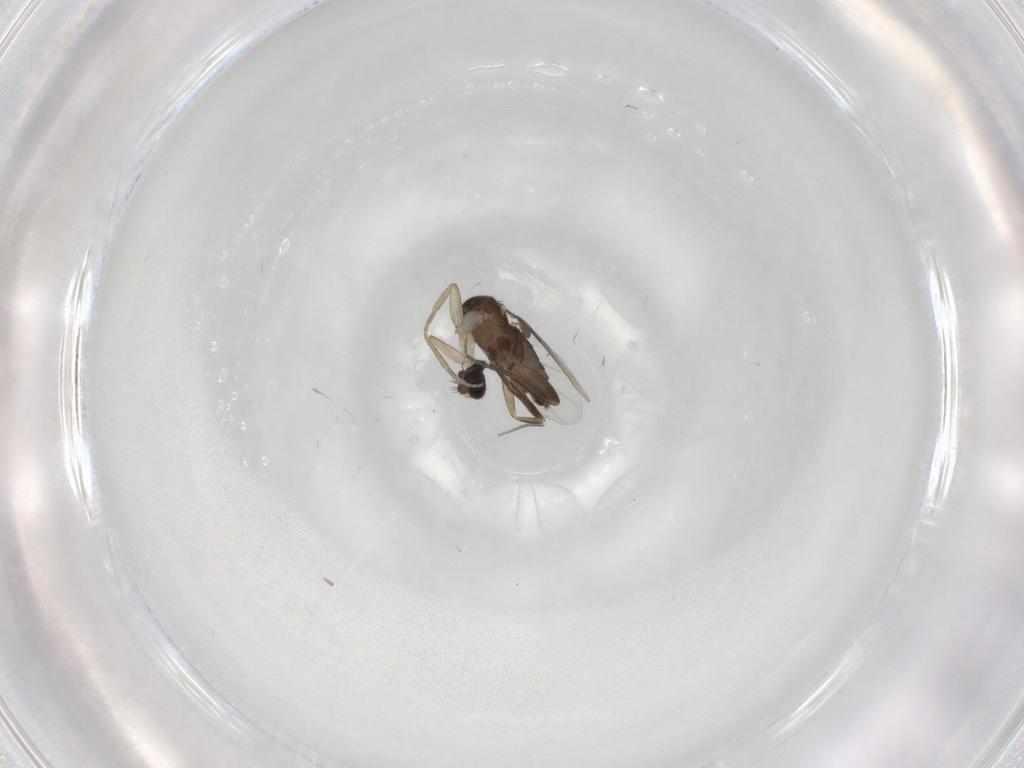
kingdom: Animalia
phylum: Arthropoda
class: Insecta
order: Diptera
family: Phoridae
